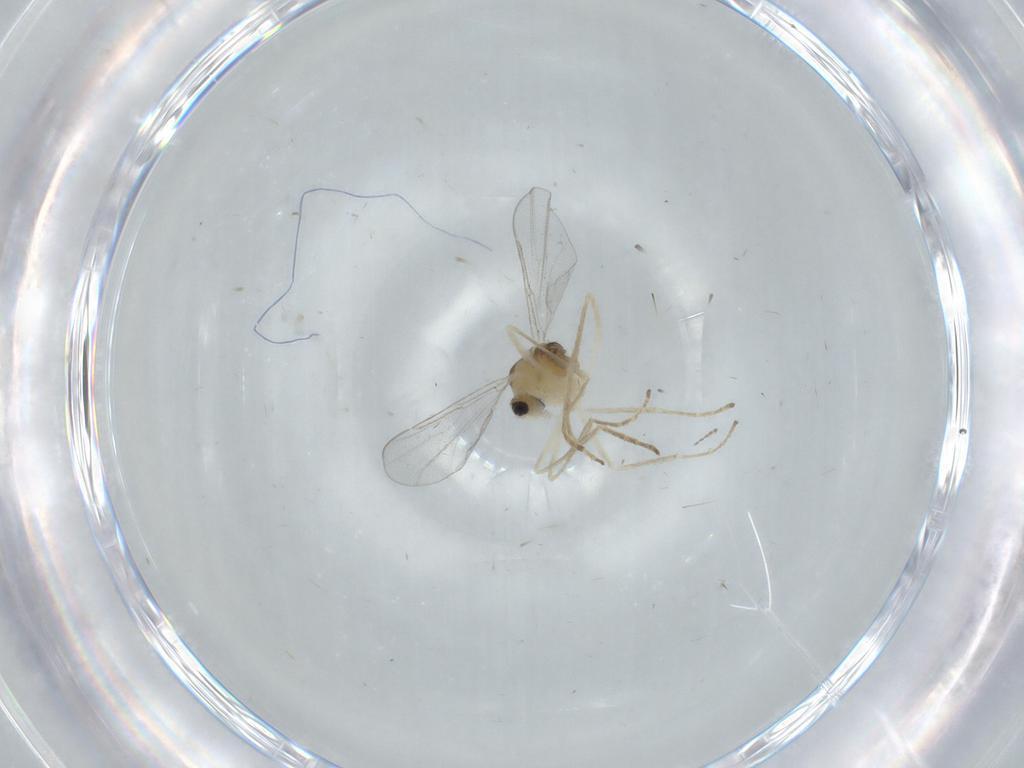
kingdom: Animalia
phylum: Arthropoda
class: Insecta
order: Diptera
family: Cecidomyiidae
